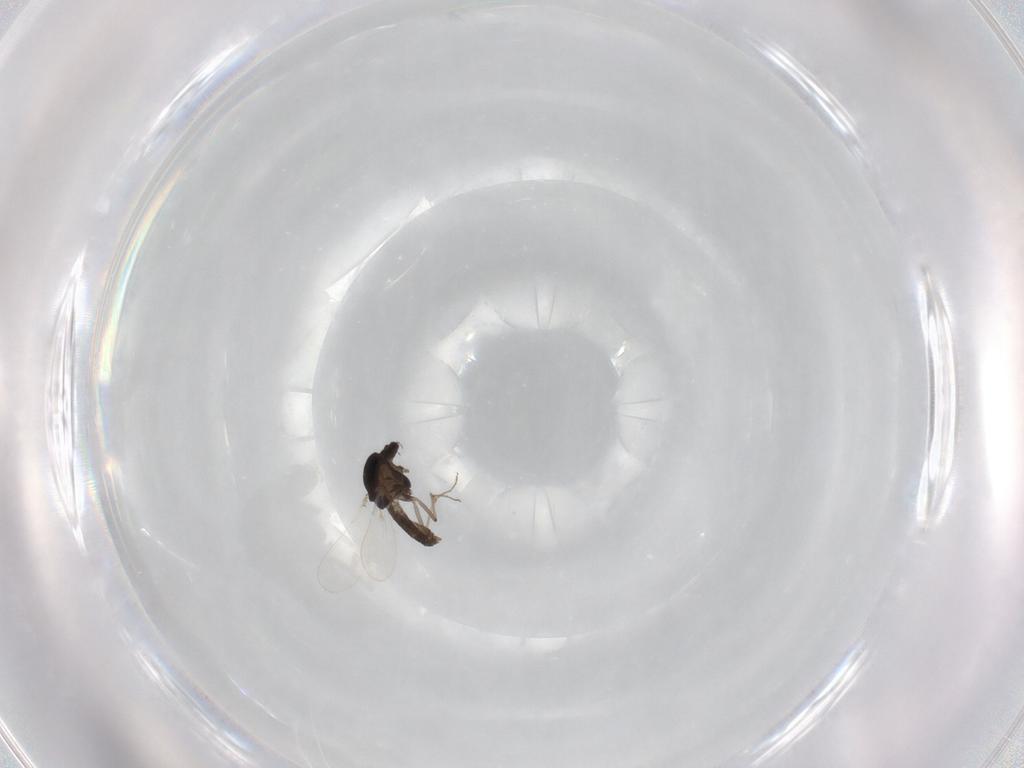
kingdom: Animalia
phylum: Arthropoda
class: Insecta
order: Diptera
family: Chironomidae
